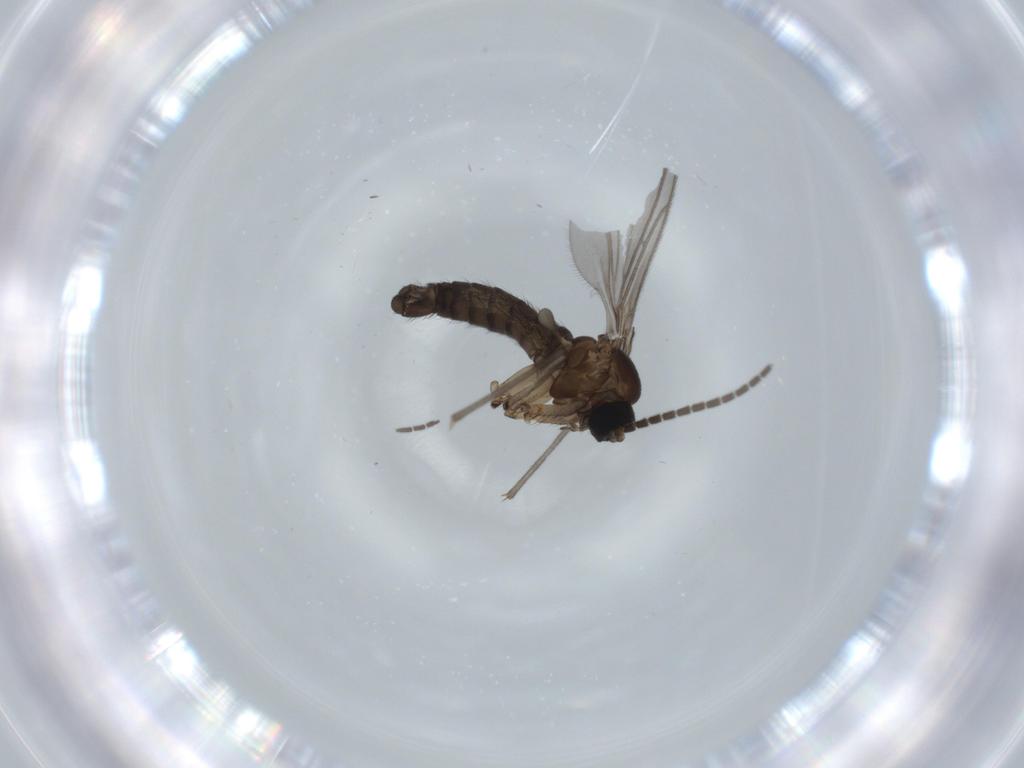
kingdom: Animalia
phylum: Arthropoda
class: Insecta
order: Diptera
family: Sciaridae
